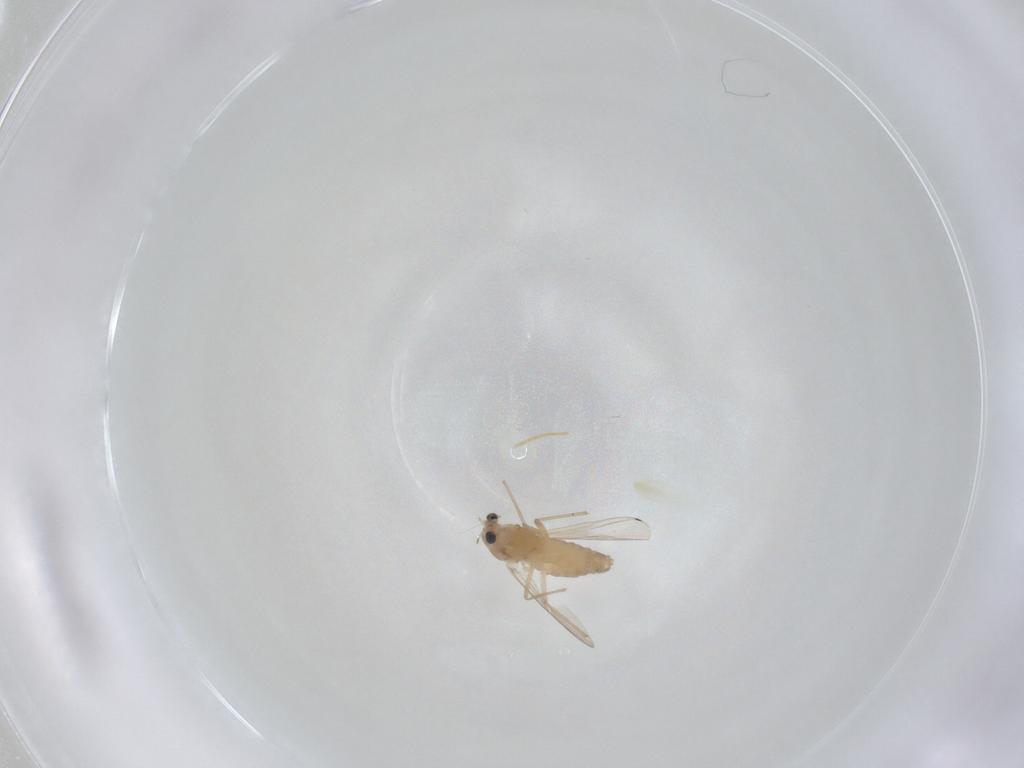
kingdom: Animalia
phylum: Arthropoda
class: Insecta
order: Diptera
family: Chironomidae
